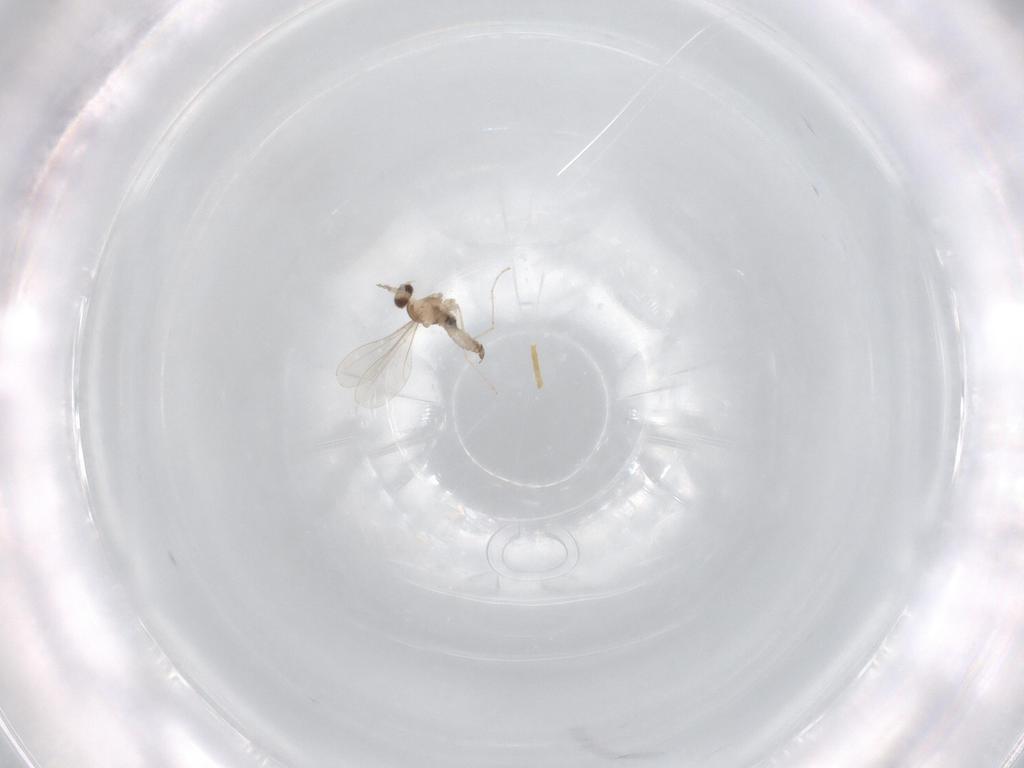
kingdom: Animalia
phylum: Arthropoda
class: Insecta
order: Diptera
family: Cecidomyiidae
